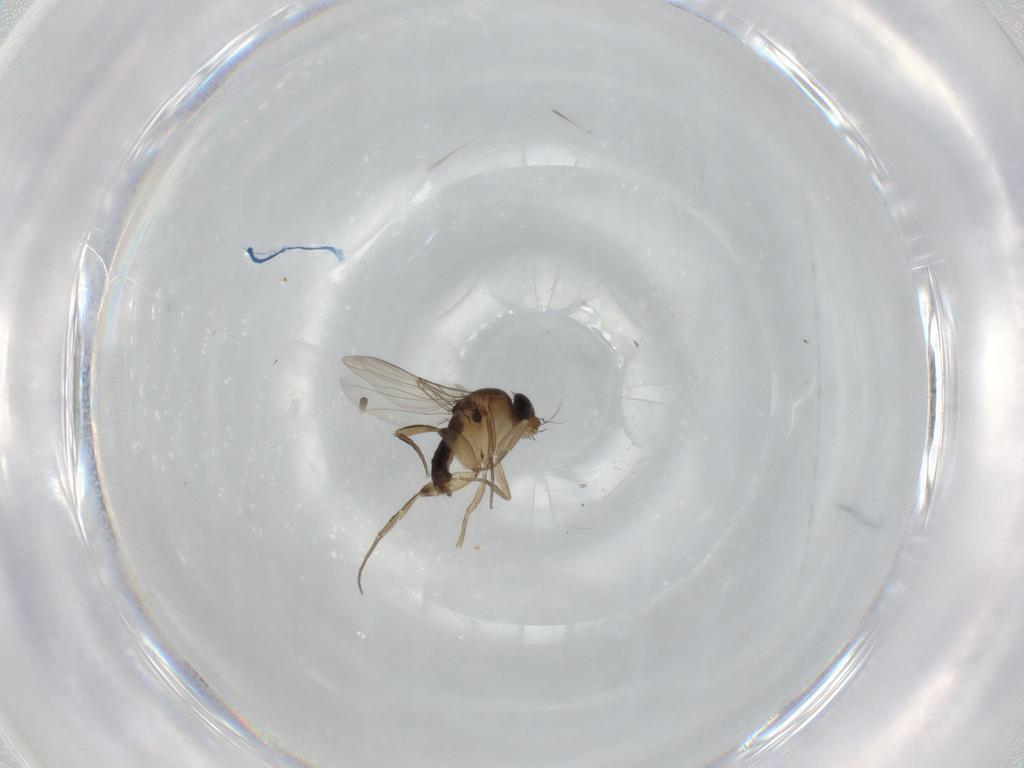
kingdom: Animalia
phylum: Arthropoda
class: Insecta
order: Diptera
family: Phoridae
